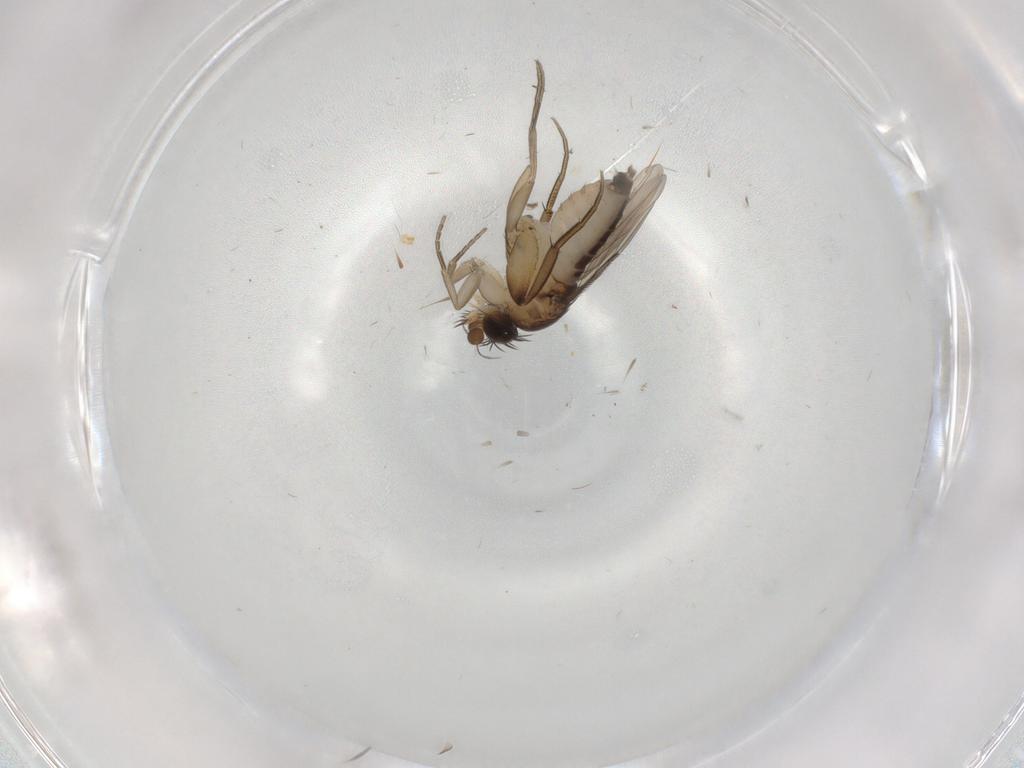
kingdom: Animalia
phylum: Arthropoda
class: Insecta
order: Diptera
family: Phoridae
